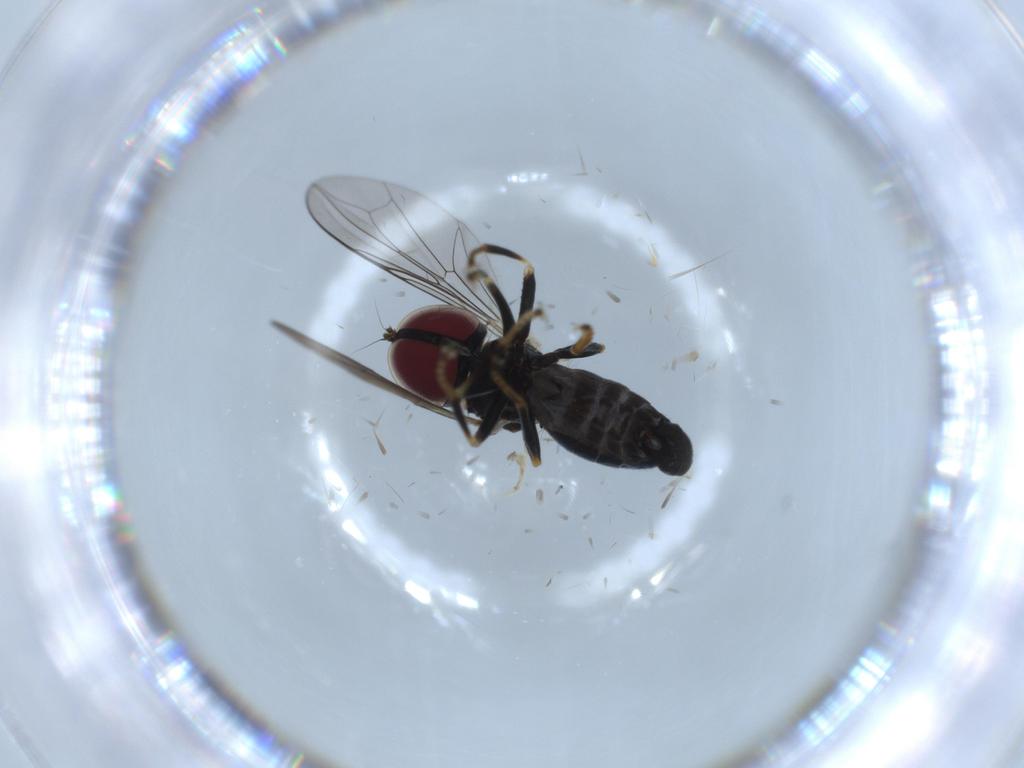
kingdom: Animalia
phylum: Arthropoda
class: Insecta
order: Diptera
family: Pipunculidae
